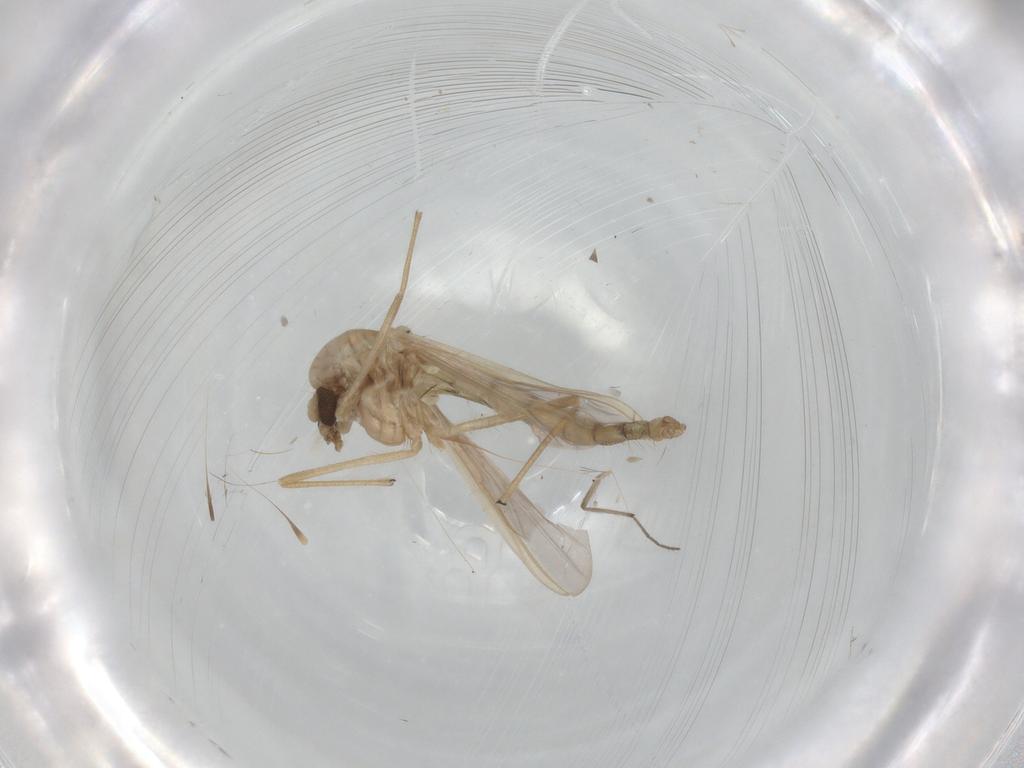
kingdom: Animalia
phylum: Arthropoda
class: Insecta
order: Diptera
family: Chironomidae
